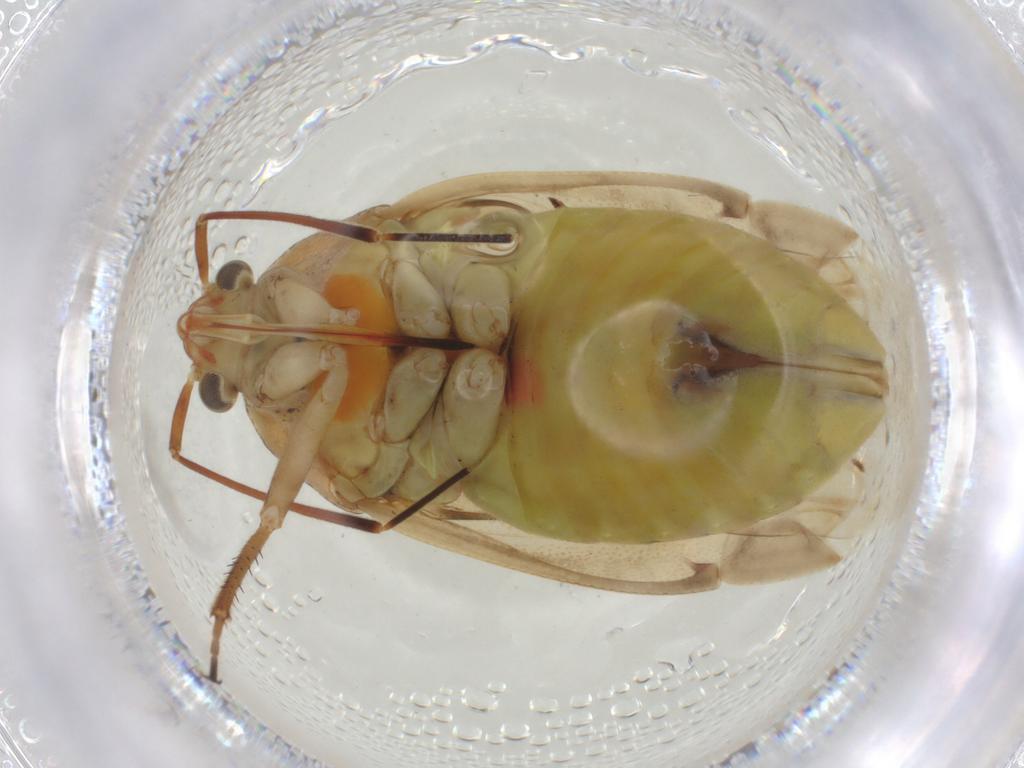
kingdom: Animalia
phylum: Arthropoda
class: Insecta
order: Hemiptera
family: Miridae
